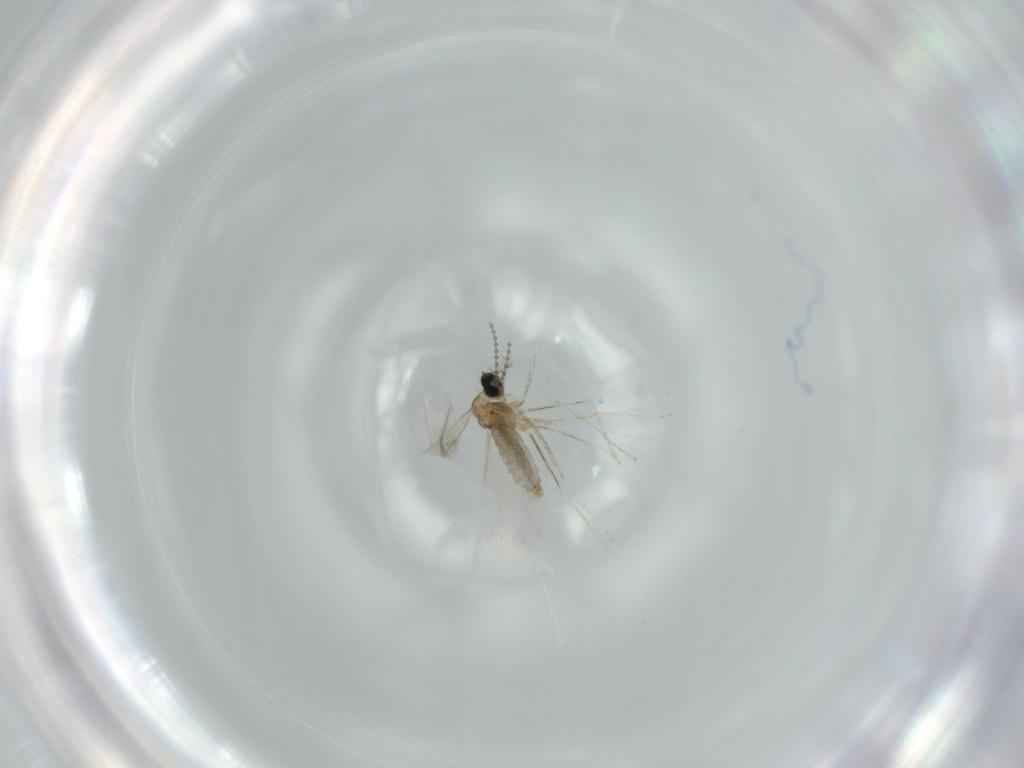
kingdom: Animalia
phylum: Arthropoda
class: Insecta
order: Diptera
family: Cecidomyiidae
